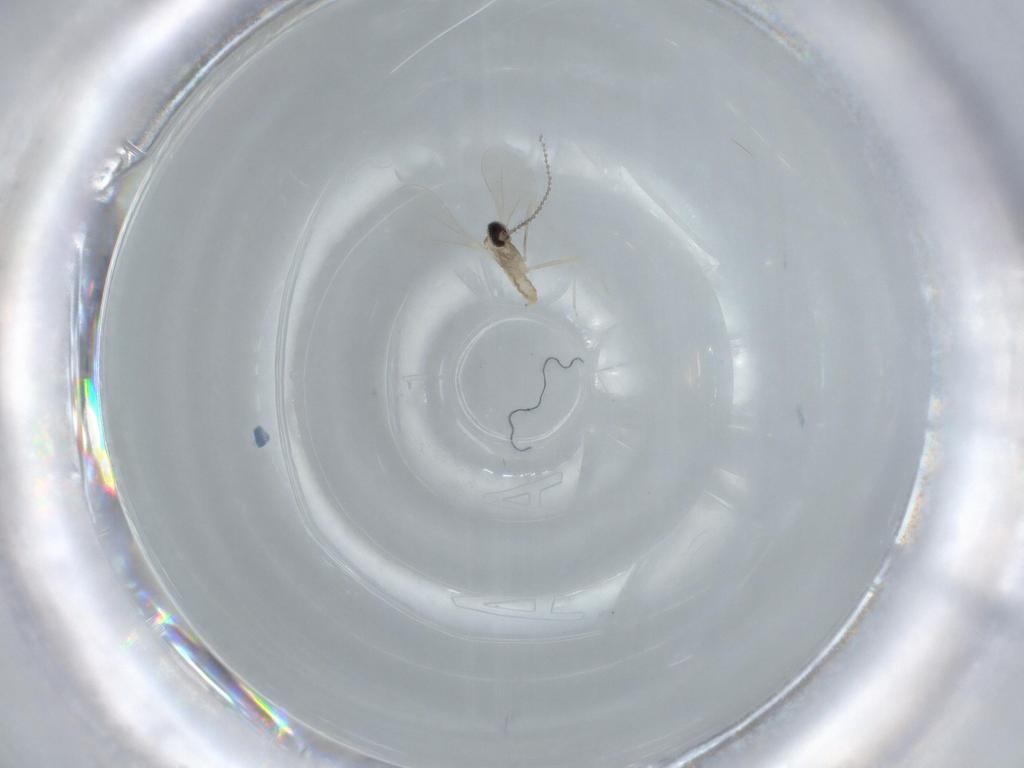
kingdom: Animalia
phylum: Arthropoda
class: Insecta
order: Diptera
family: Cecidomyiidae
